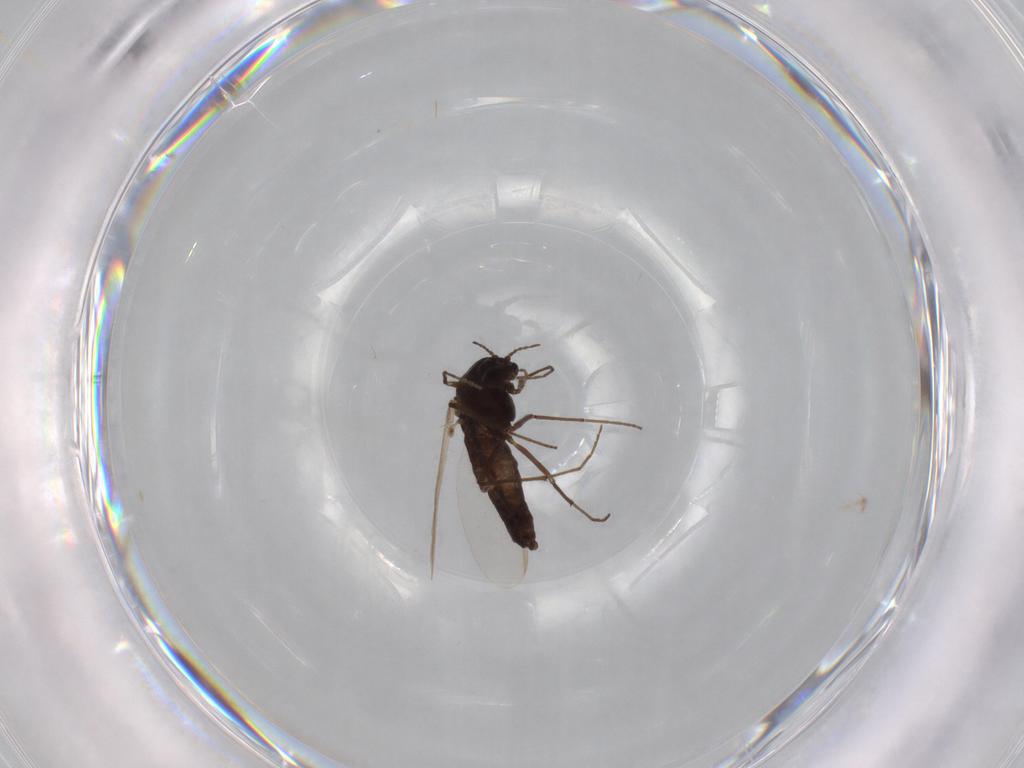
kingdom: Animalia
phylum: Arthropoda
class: Insecta
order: Diptera
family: Chironomidae
